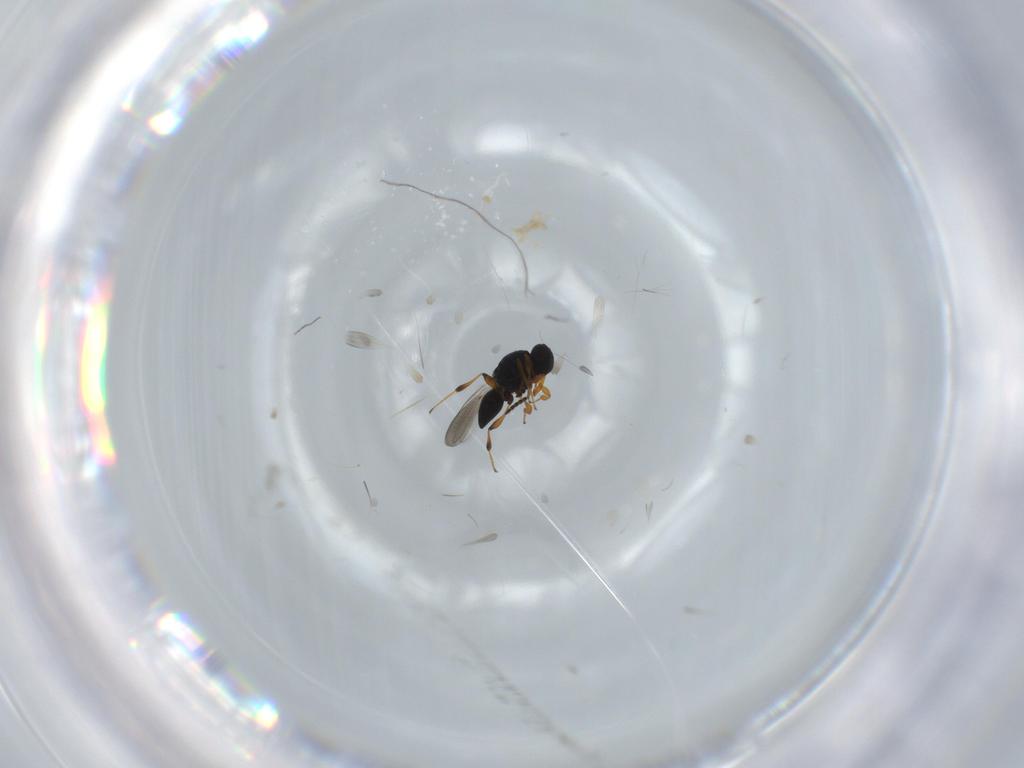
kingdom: Animalia
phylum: Arthropoda
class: Insecta
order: Hymenoptera
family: Platygastridae
